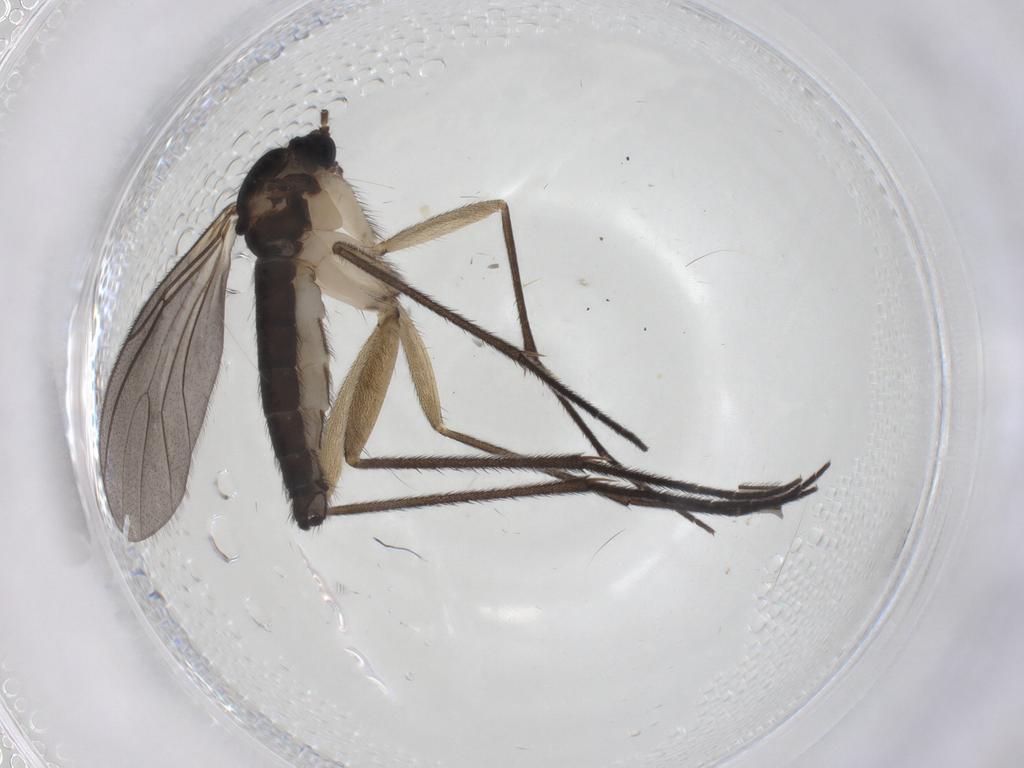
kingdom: Animalia
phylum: Arthropoda
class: Insecta
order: Diptera
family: Sciaridae
